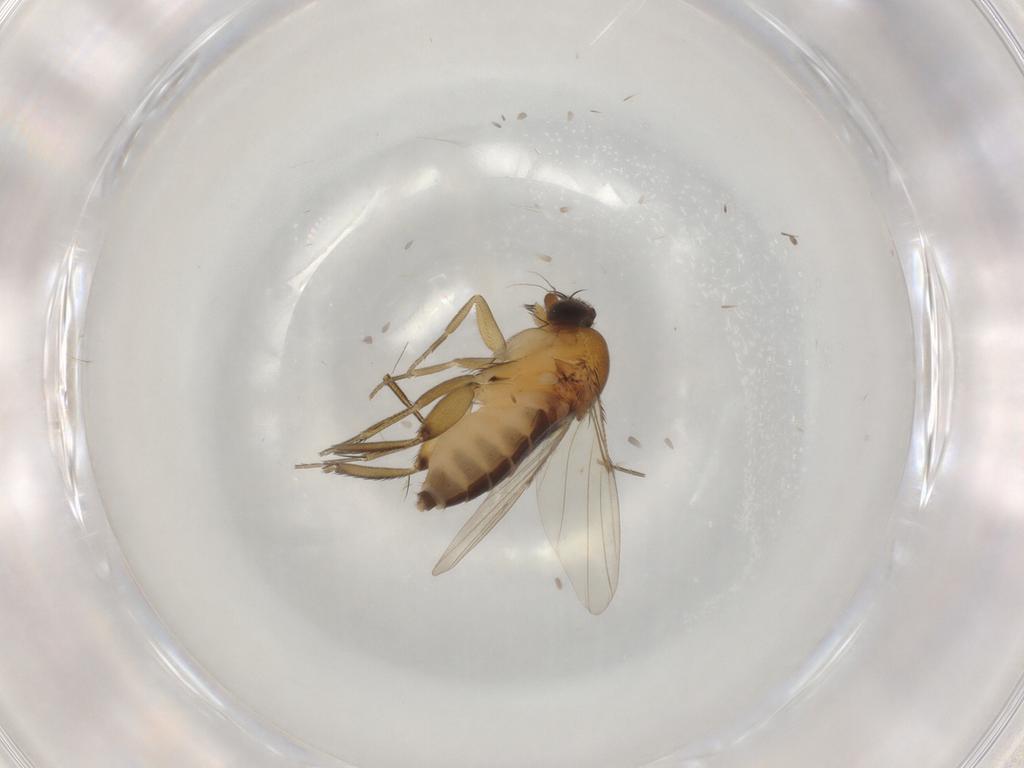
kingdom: Animalia
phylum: Arthropoda
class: Insecta
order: Diptera
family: Phoridae
